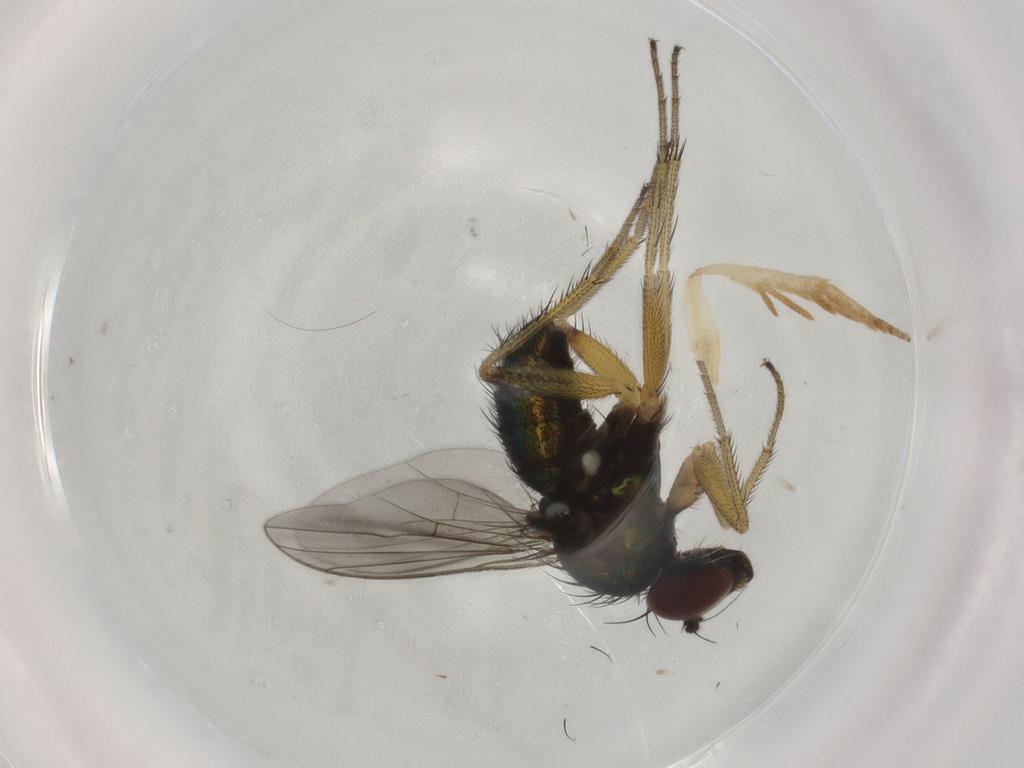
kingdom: Animalia
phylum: Arthropoda
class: Insecta
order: Diptera
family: Dolichopodidae
